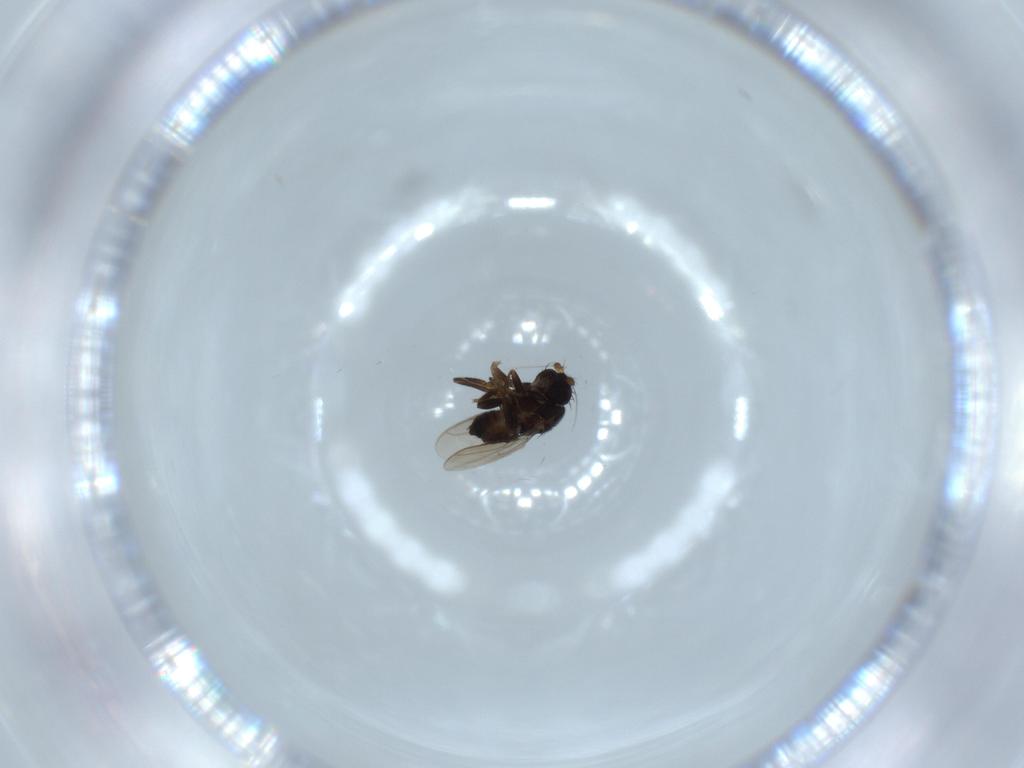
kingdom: Animalia
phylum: Arthropoda
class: Insecta
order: Diptera
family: Sphaeroceridae
